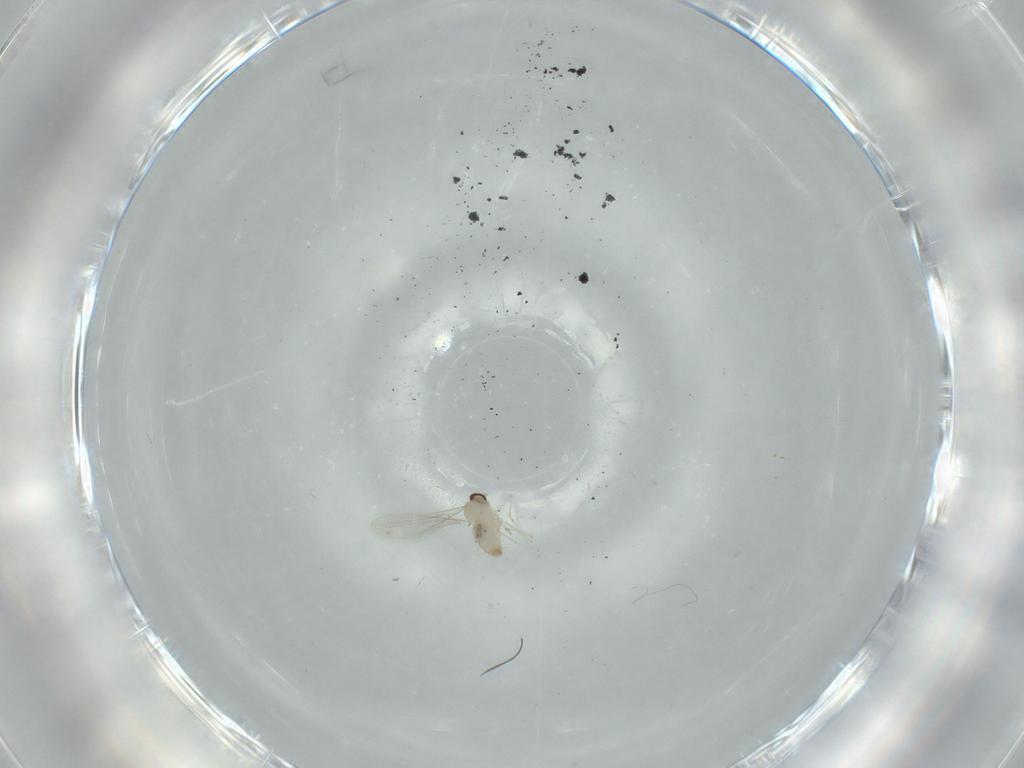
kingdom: Animalia
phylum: Arthropoda
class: Insecta
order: Diptera
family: Cecidomyiidae
